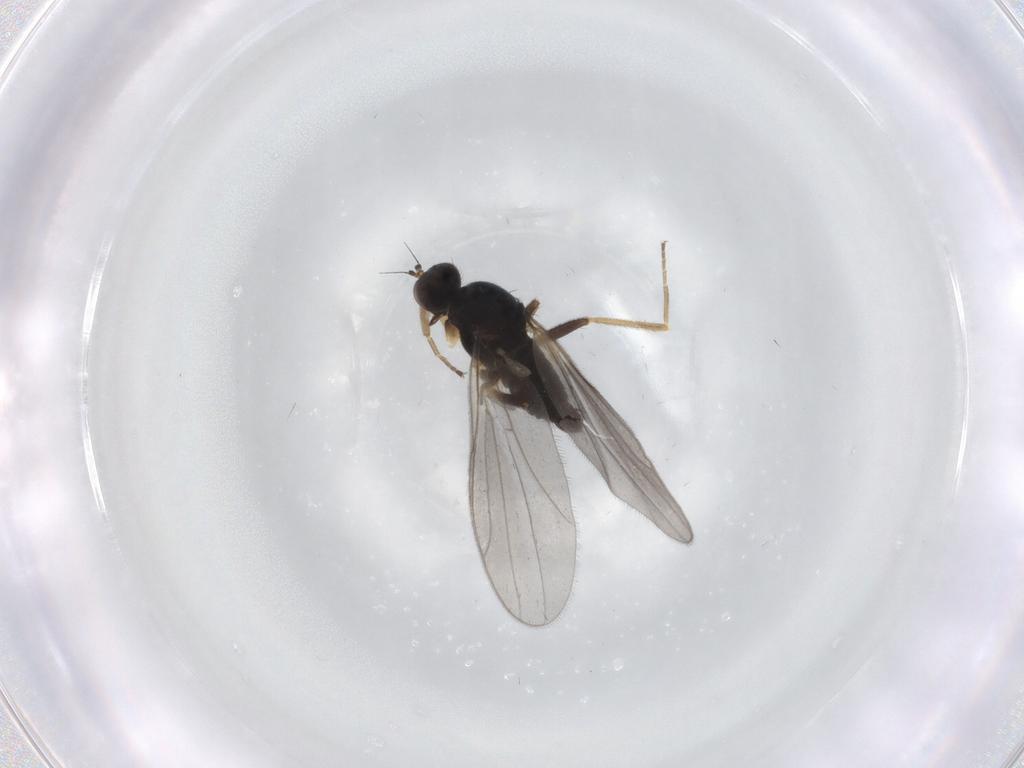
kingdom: Animalia
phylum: Arthropoda
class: Insecta
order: Diptera
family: Hybotidae
